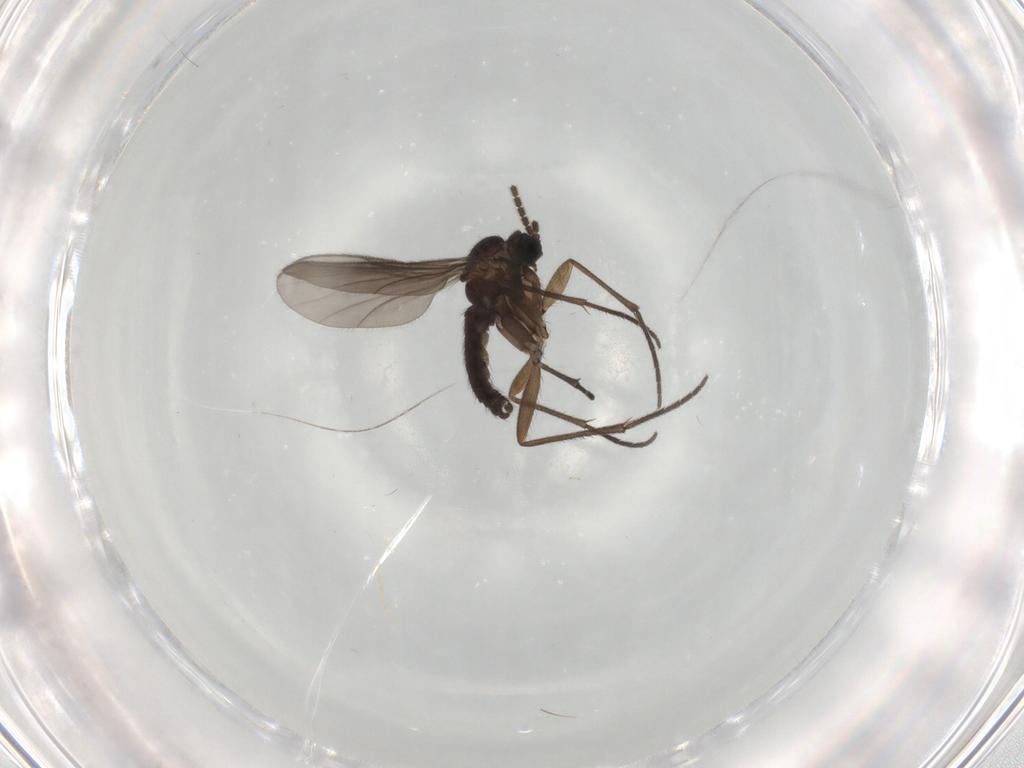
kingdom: Animalia
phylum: Arthropoda
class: Insecta
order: Diptera
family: Sciaridae
